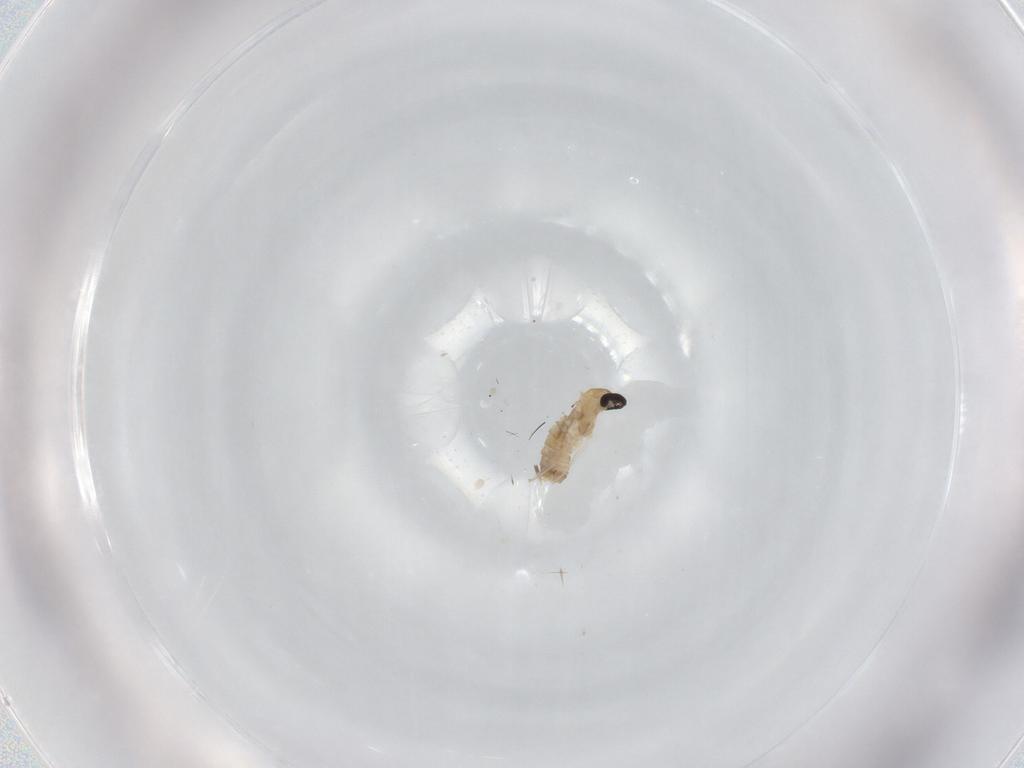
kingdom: Animalia
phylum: Arthropoda
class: Insecta
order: Diptera
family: Cecidomyiidae
